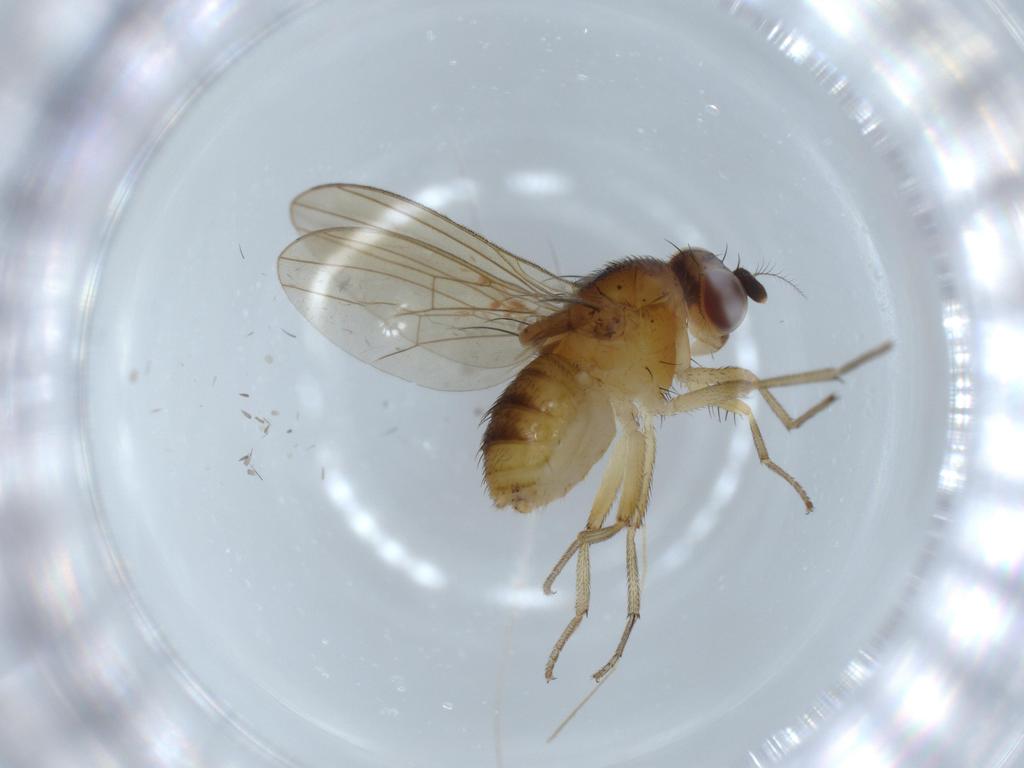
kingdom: Animalia
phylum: Arthropoda
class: Insecta
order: Diptera
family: Lauxaniidae
